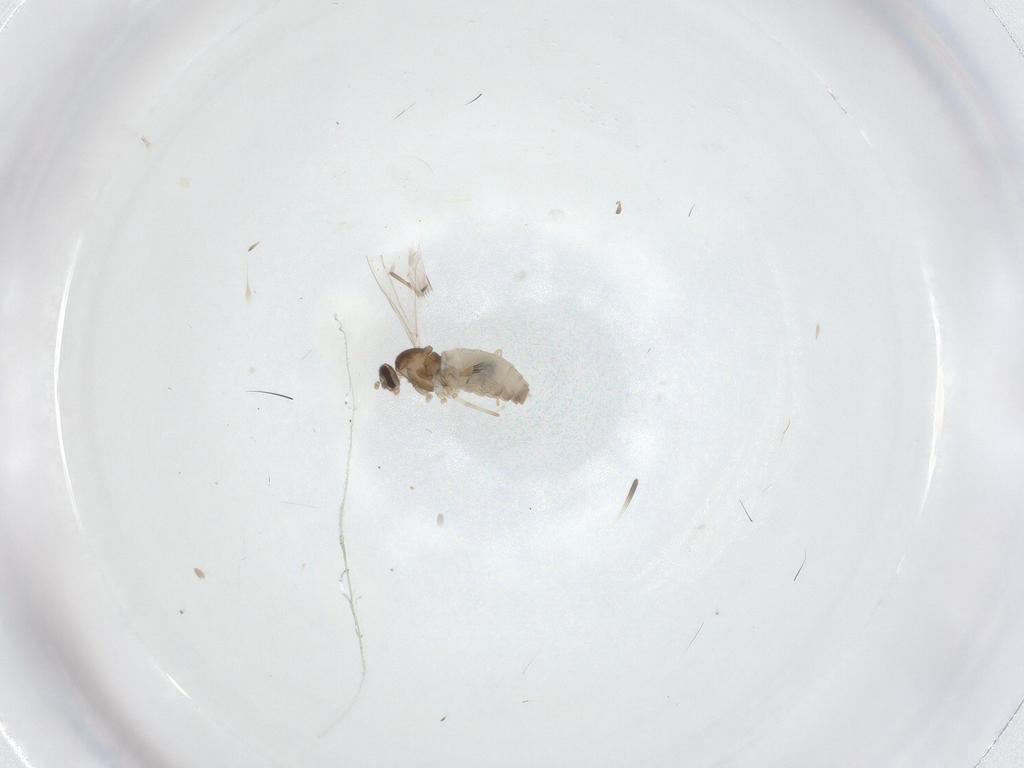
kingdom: Animalia
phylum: Arthropoda
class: Insecta
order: Diptera
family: Cecidomyiidae
